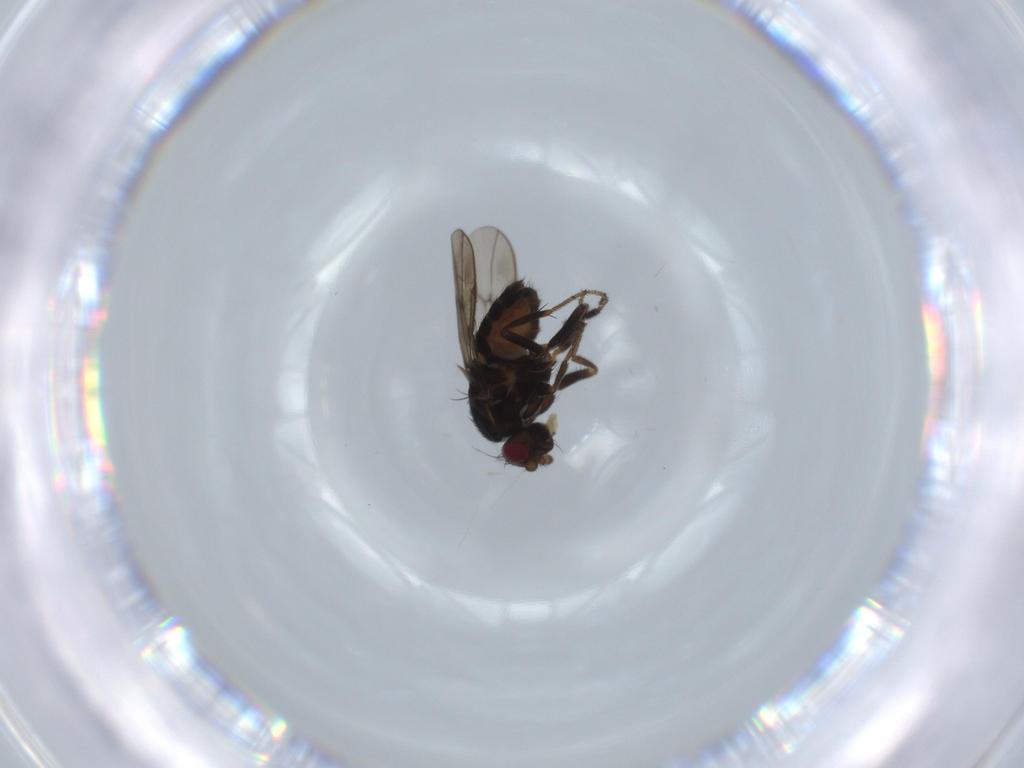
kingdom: Animalia
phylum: Arthropoda
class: Insecta
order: Diptera
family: Sphaeroceridae
